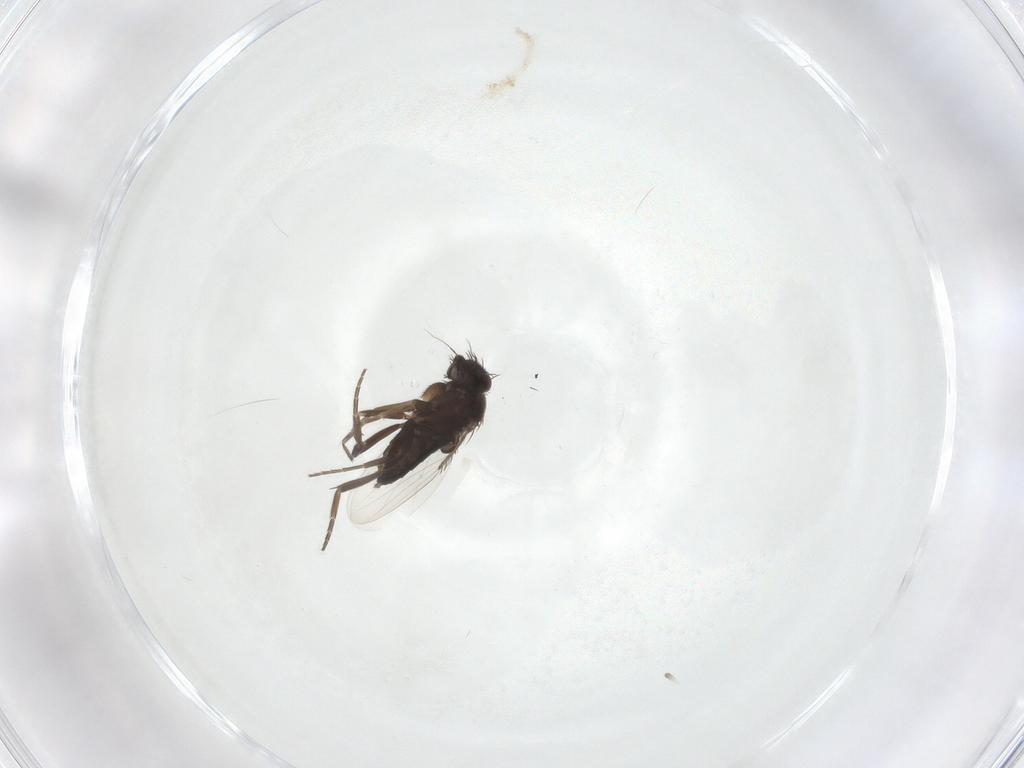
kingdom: Animalia
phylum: Arthropoda
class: Insecta
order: Diptera
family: Phoridae
